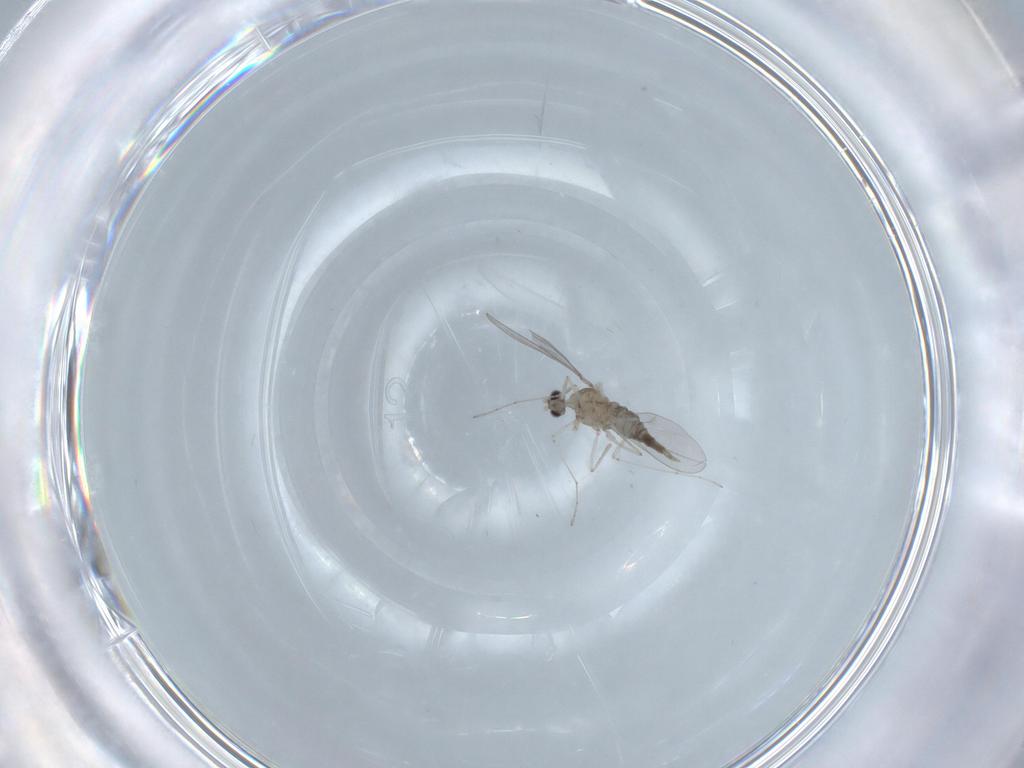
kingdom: Animalia
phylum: Arthropoda
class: Insecta
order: Diptera
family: Cecidomyiidae
